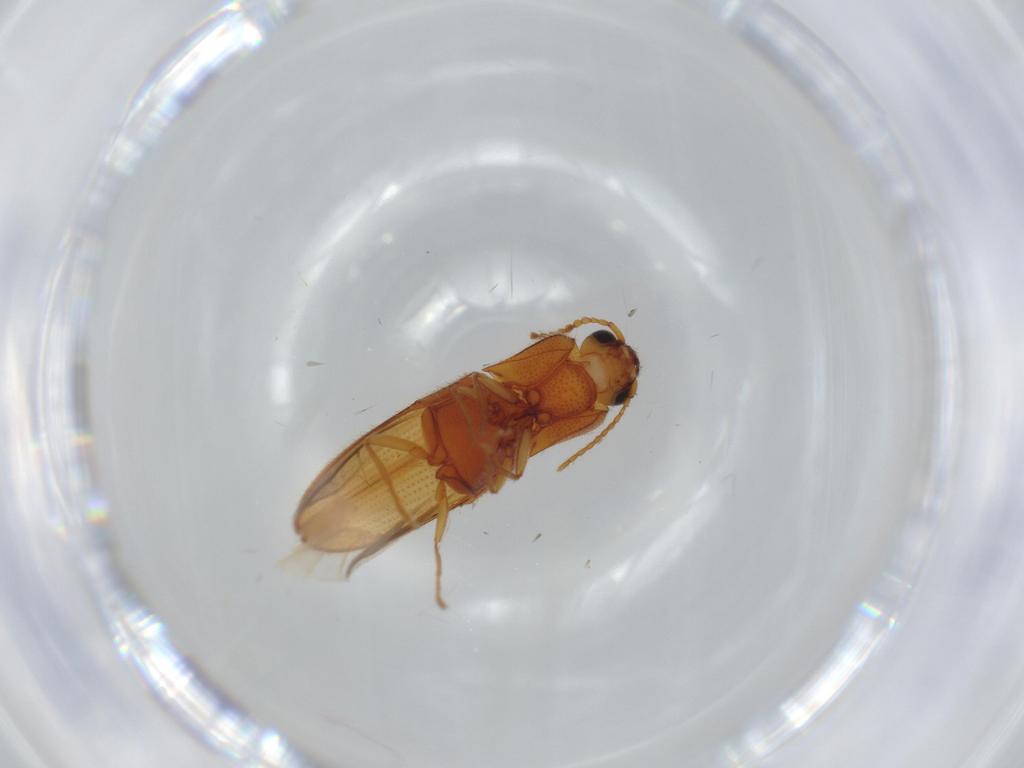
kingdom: Animalia
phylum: Arthropoda
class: Insecta
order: Coleoptera
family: Elateridae
